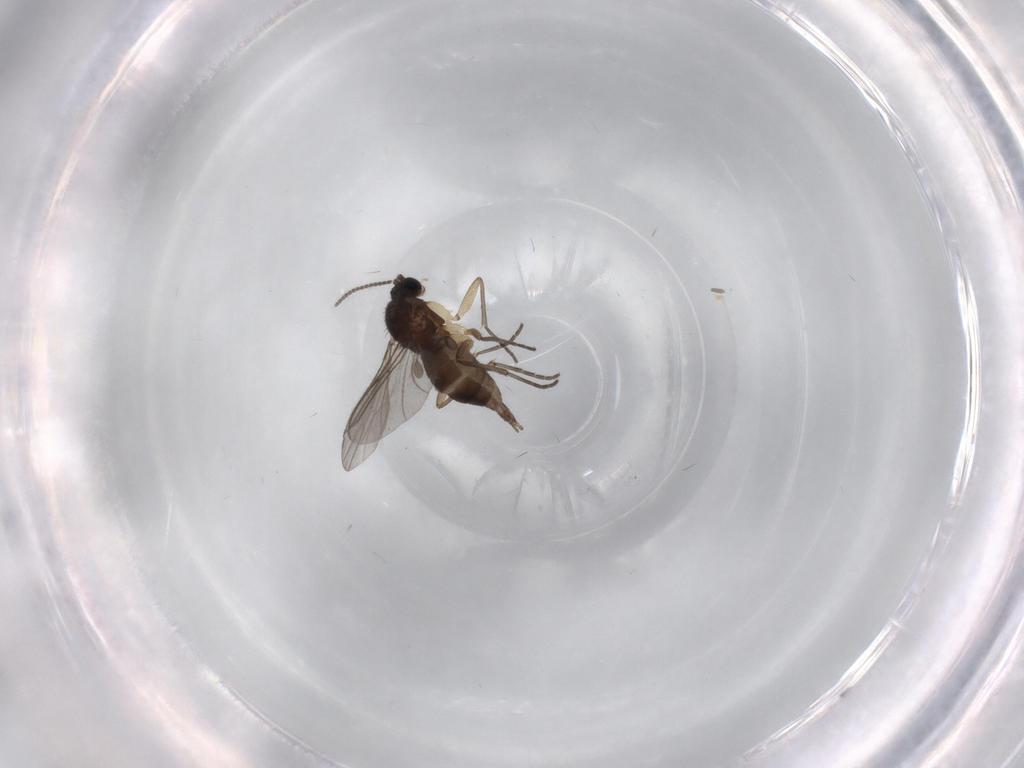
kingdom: Animalia
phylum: Arthropoda
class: Insecta
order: Diptera
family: Sciaridae
